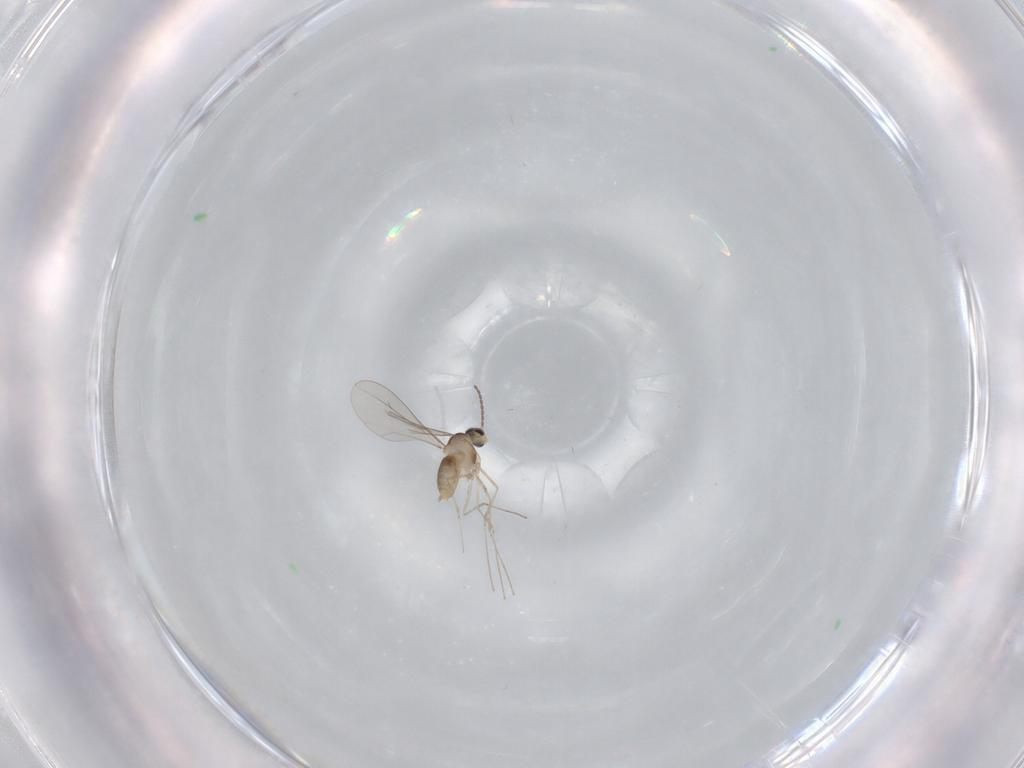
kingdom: Animalia
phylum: Arthropoda
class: Insecta
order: Diptera
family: Cecidomyiidae
